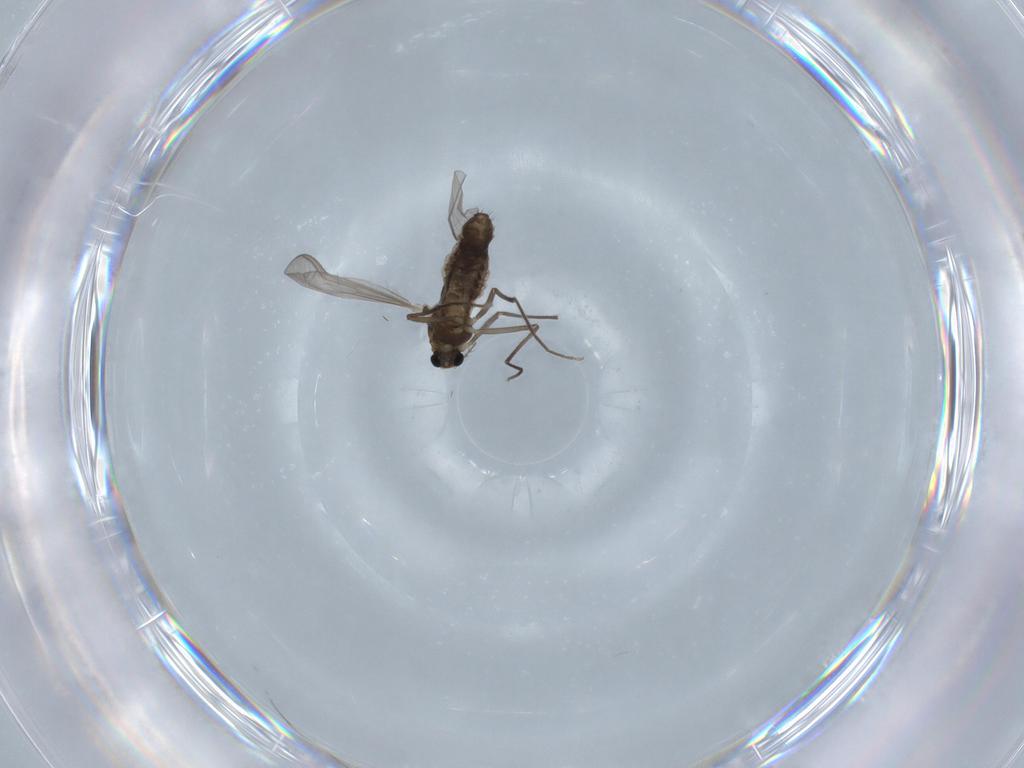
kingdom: Animalia
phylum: Arthropoda
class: Insecta
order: Diptera
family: Chironomidae
